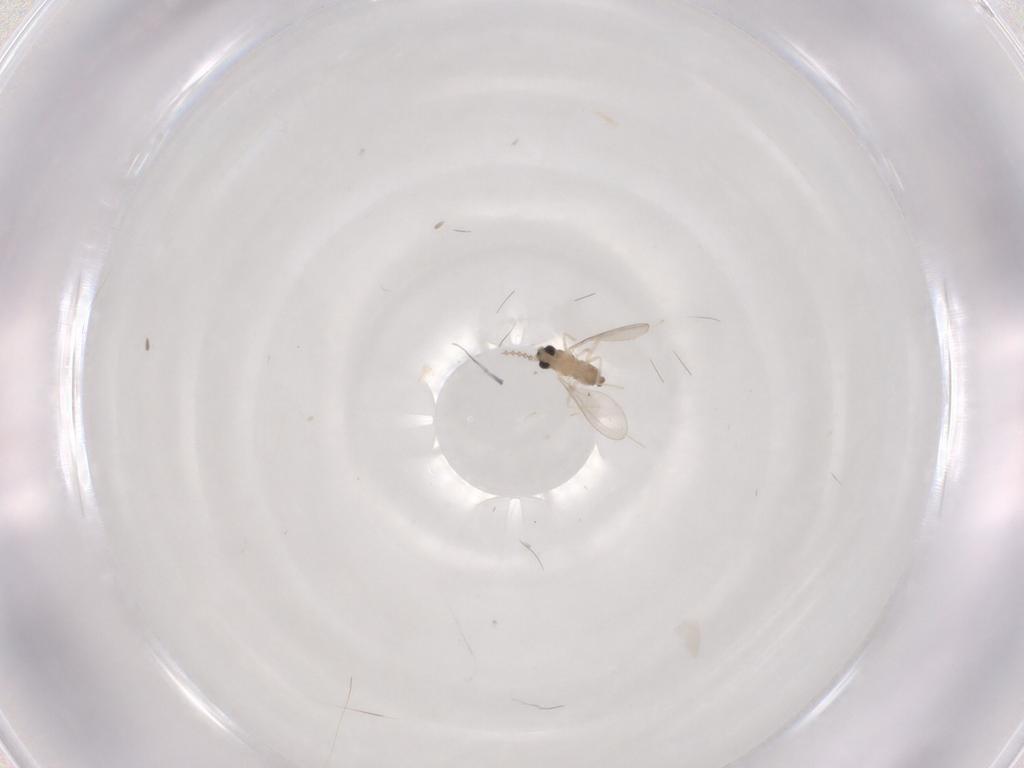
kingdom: Animalia
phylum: Arthropoda
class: Insecta
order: Diptera
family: Cecidomyiidae
